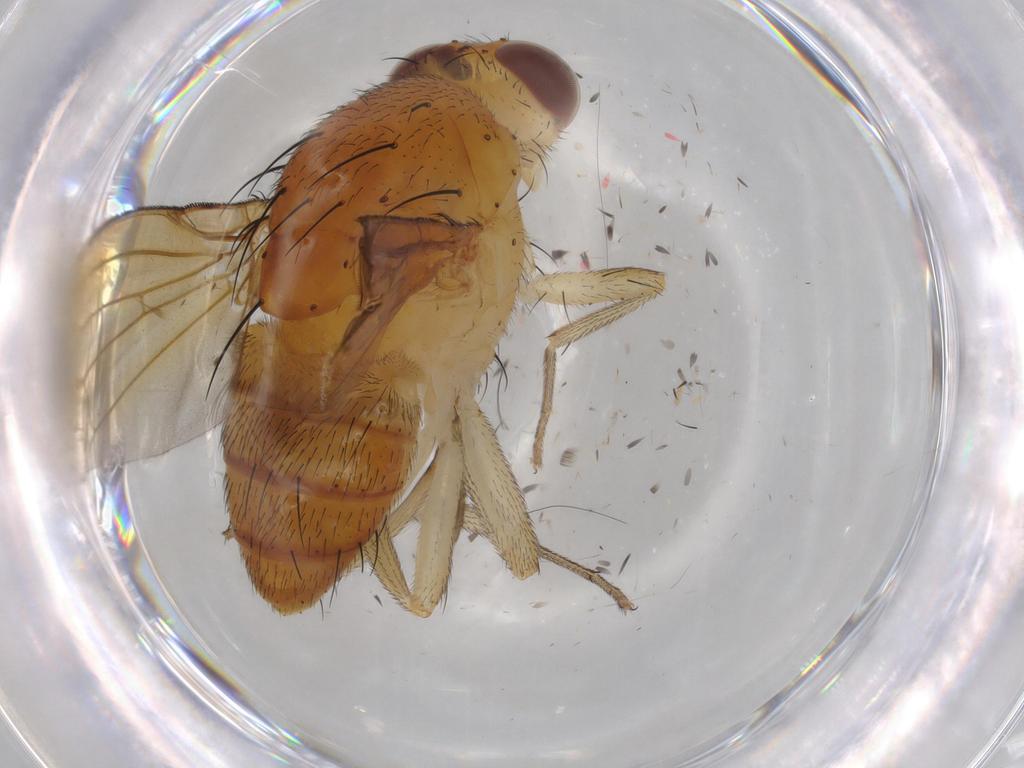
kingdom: Animalia
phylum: Arthropoda
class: Insecta
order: Diptera
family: Lauxaniidae
